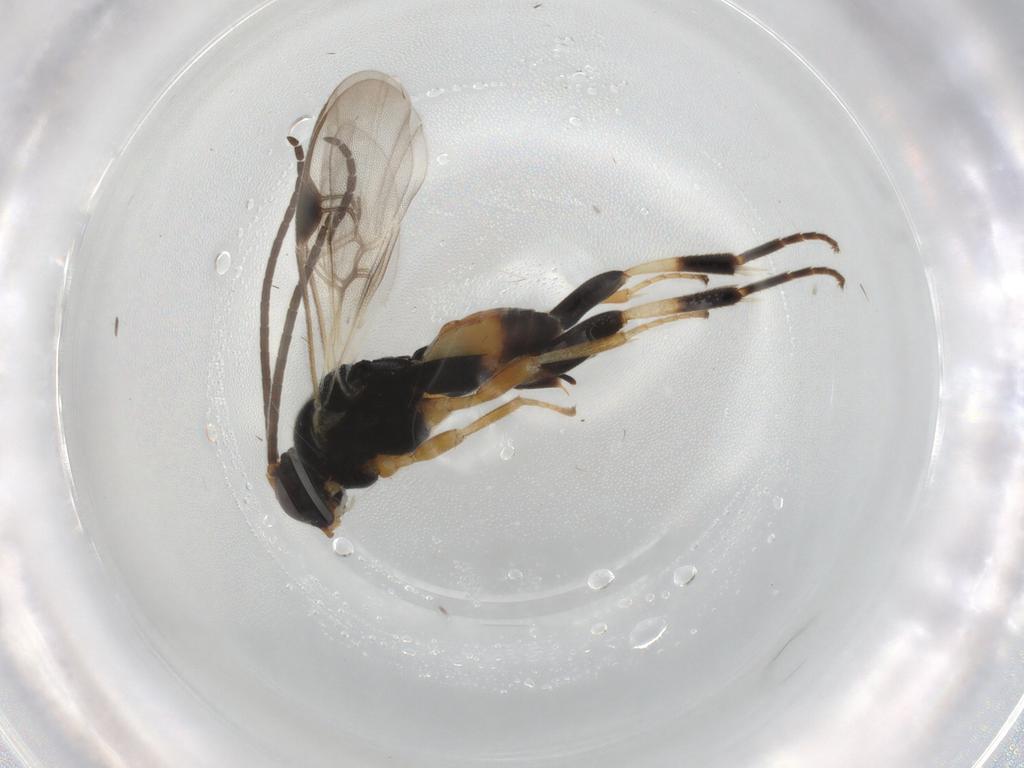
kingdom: Animalia
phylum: Arthropoda
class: Insecta
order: Hymenoptera
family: Braconidae
